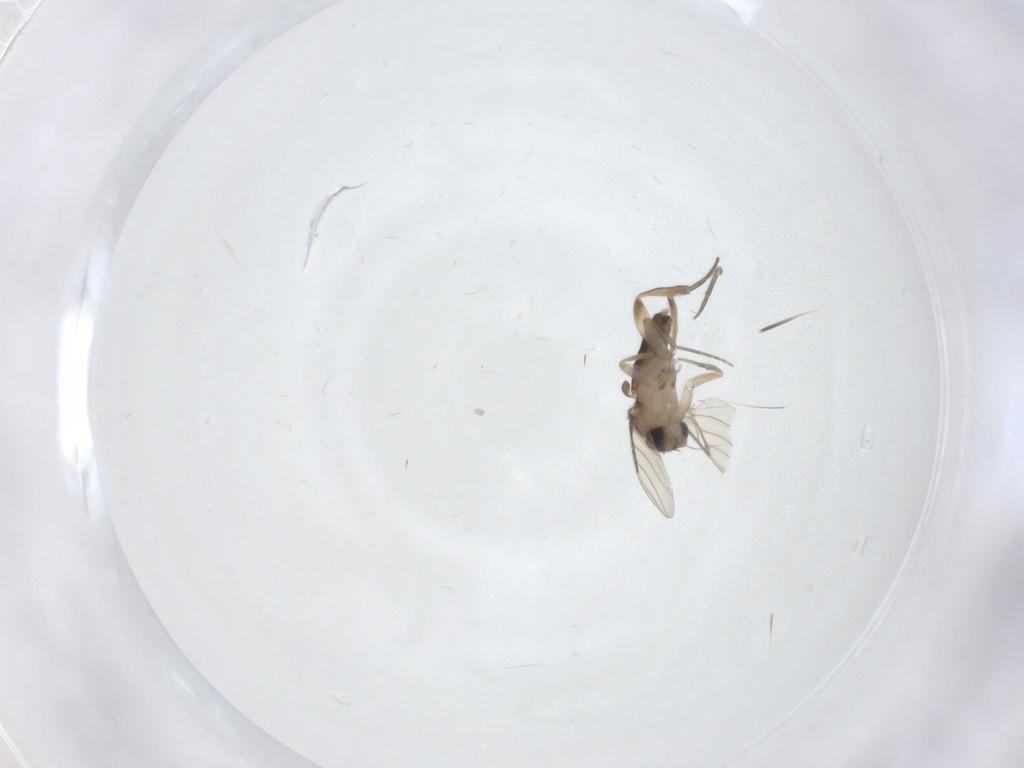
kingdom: Animalia
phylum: Arthropoda
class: Insecta
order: Diptera
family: Phoridae
